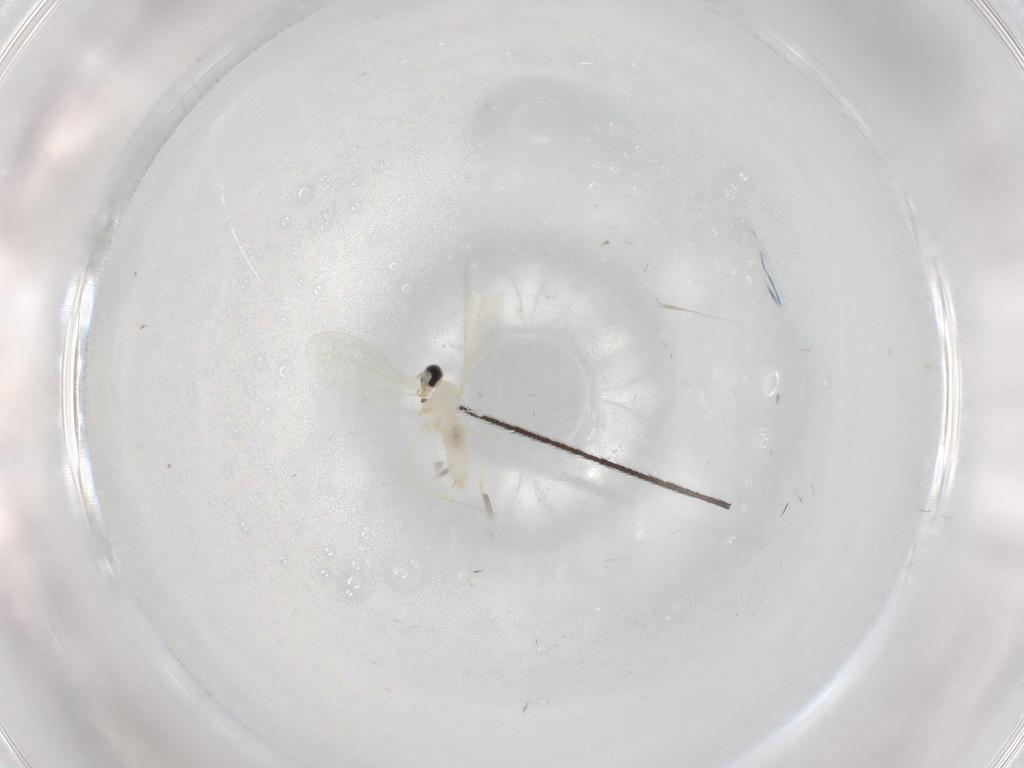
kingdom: Animalia
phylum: Arthropoda
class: Insecta
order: Diptera
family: Cecidomyiidae
